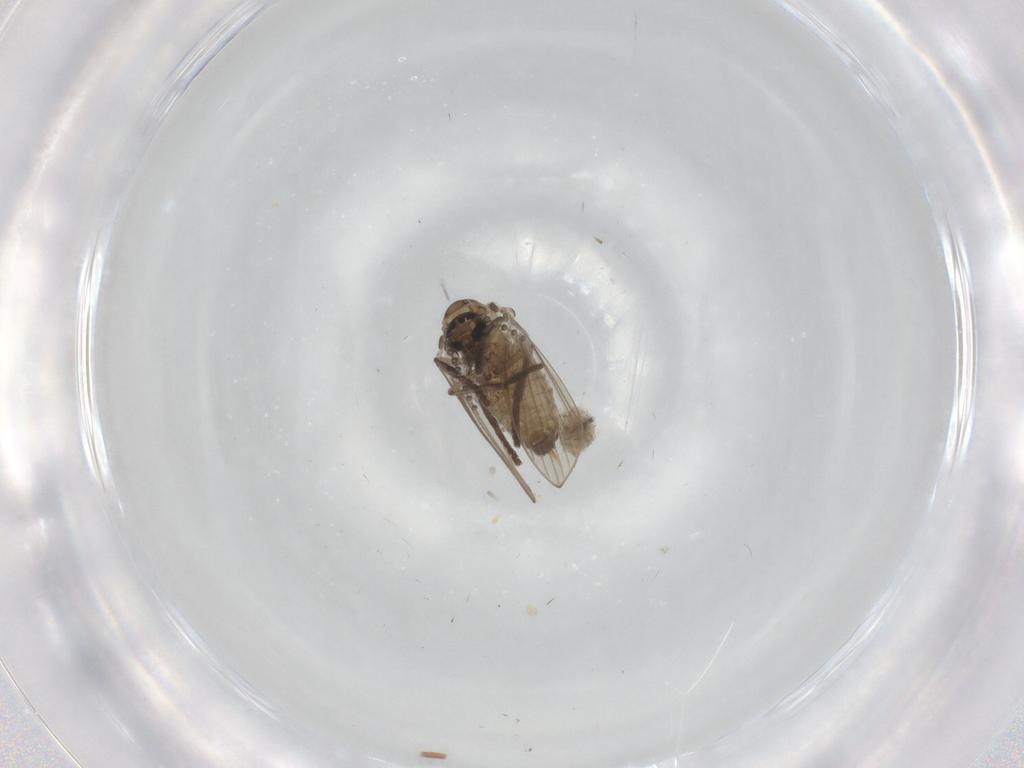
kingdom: Animalia
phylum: Arthropoda
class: Insecta
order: Diptera
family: Psychodidae
